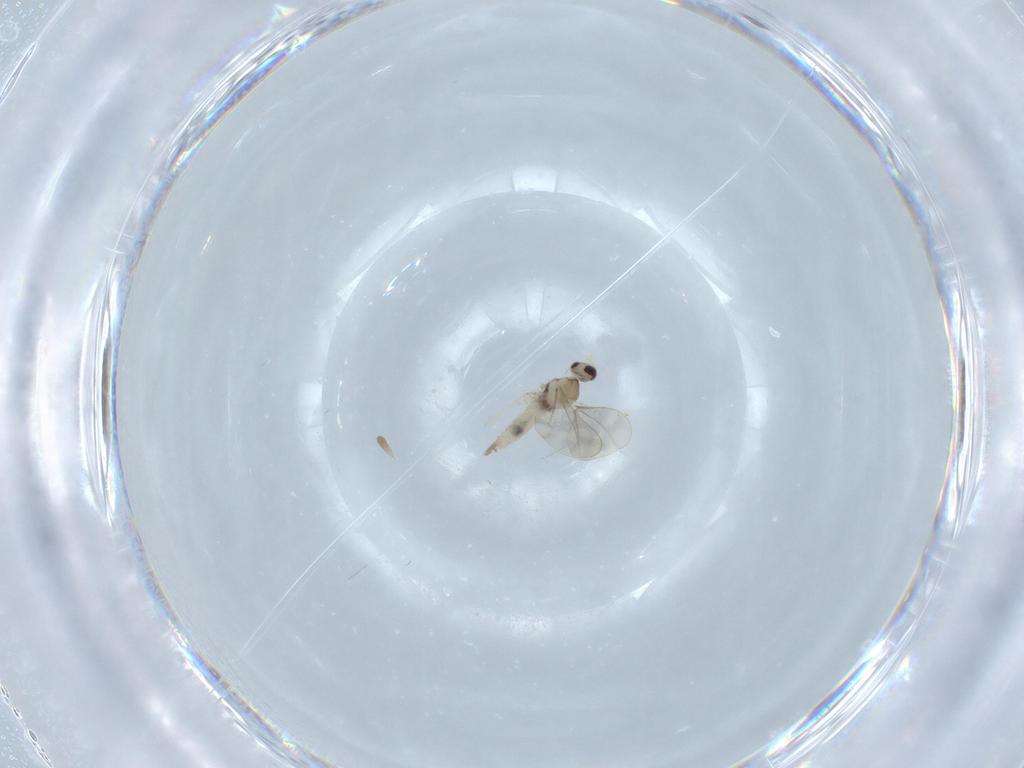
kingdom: Animalia
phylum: Arthropoda
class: Insecta
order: Diptera
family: Cecidomyiidae
